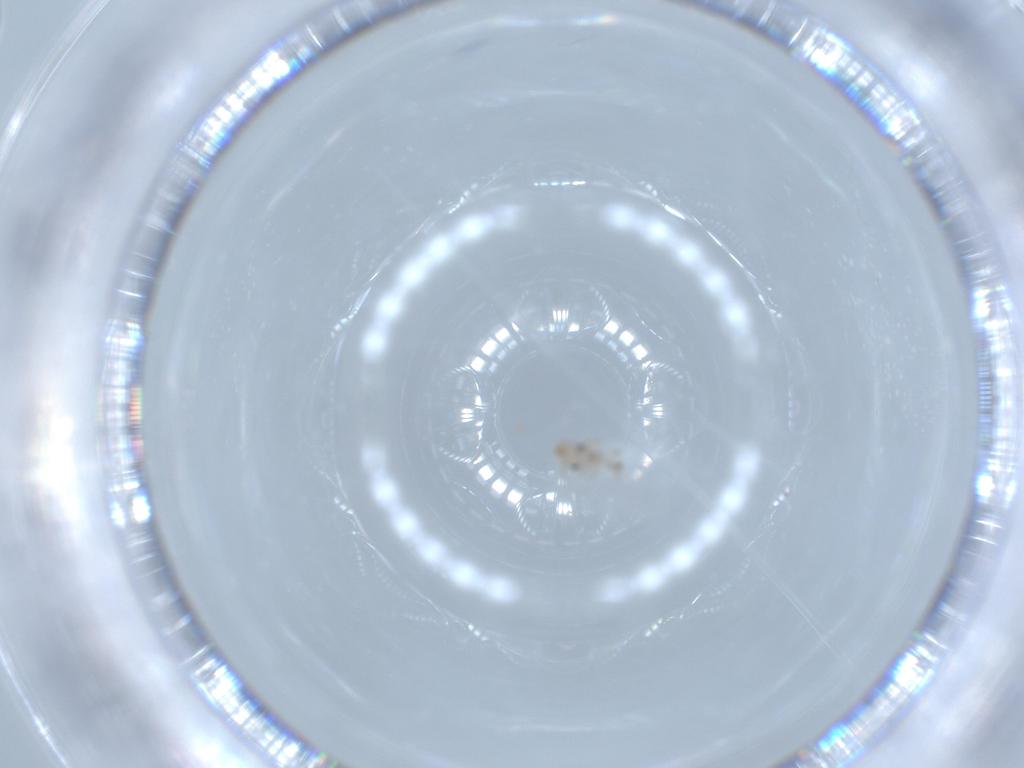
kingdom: Animalia
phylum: Arthropoda
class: Insecta
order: Psocodea
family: Lepidopsocidae
